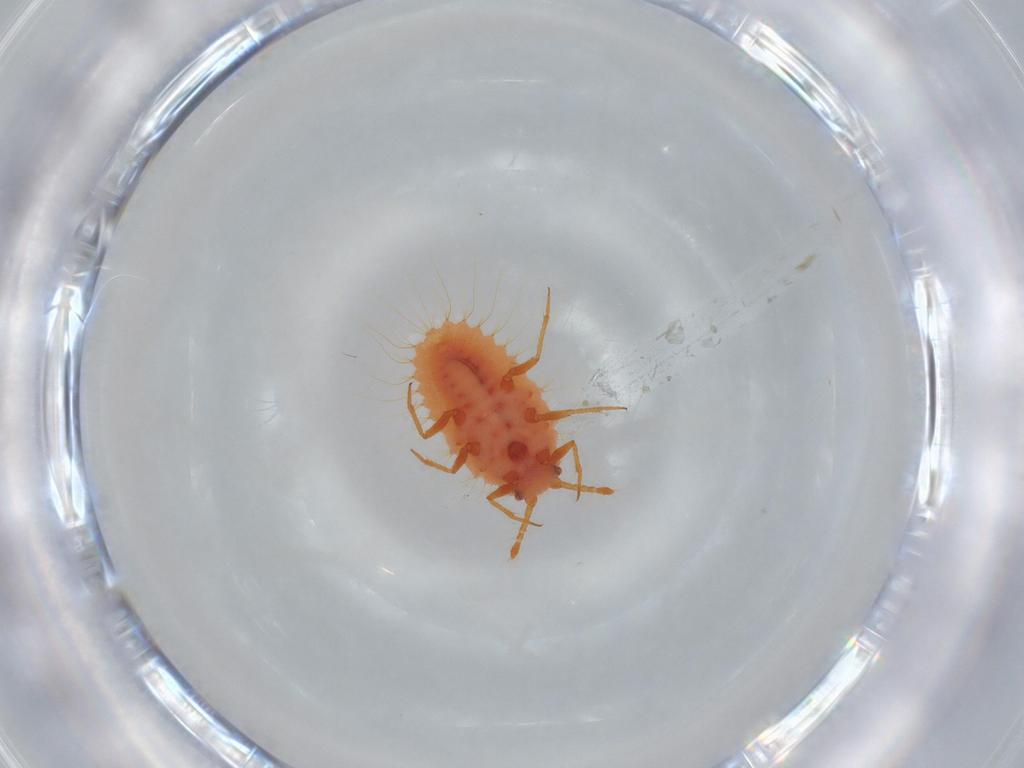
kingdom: Animalia
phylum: Arthropoda
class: Insecta
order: Hemiptera
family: Coccoidea_incertae_sedis
